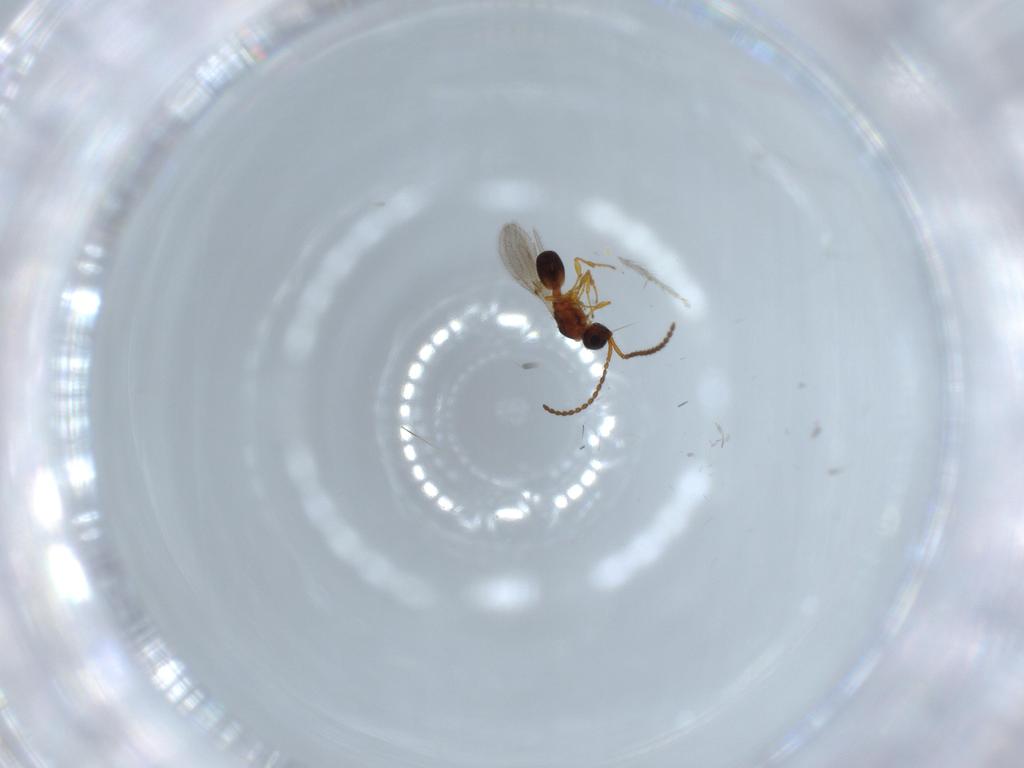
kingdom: Animalia
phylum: Arthropoda
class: Insecta
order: Hymenoptera
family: Diapriidae
